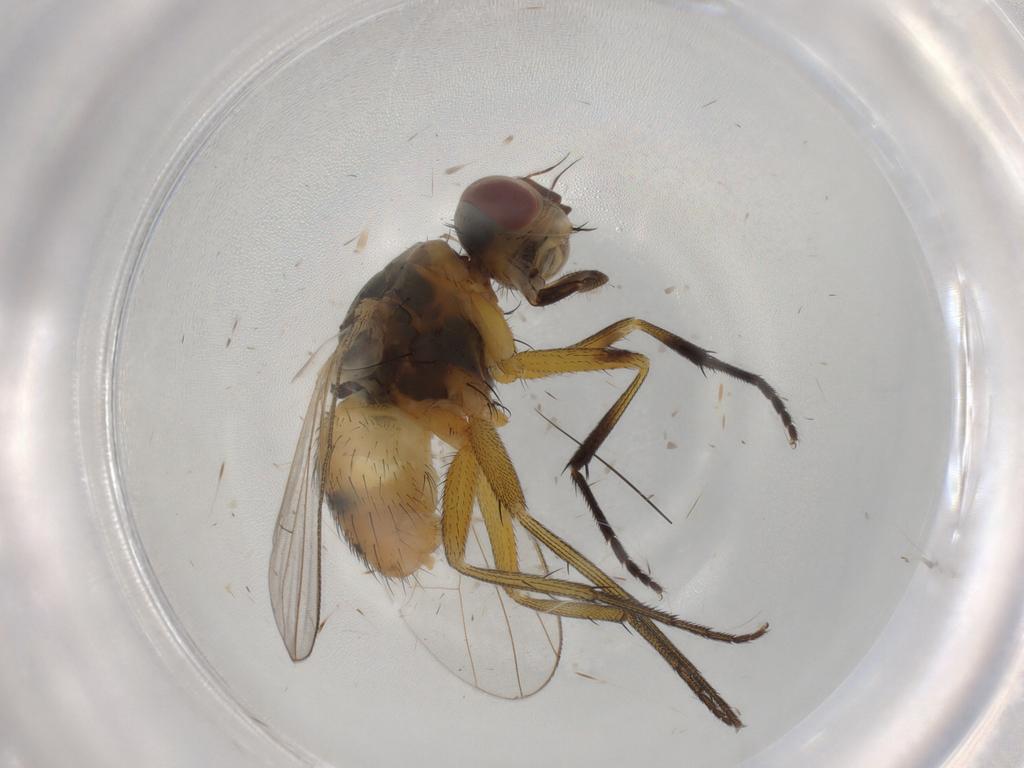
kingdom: Animalia
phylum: Arthropoda
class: Insecta
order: Diptera
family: Muscidae
